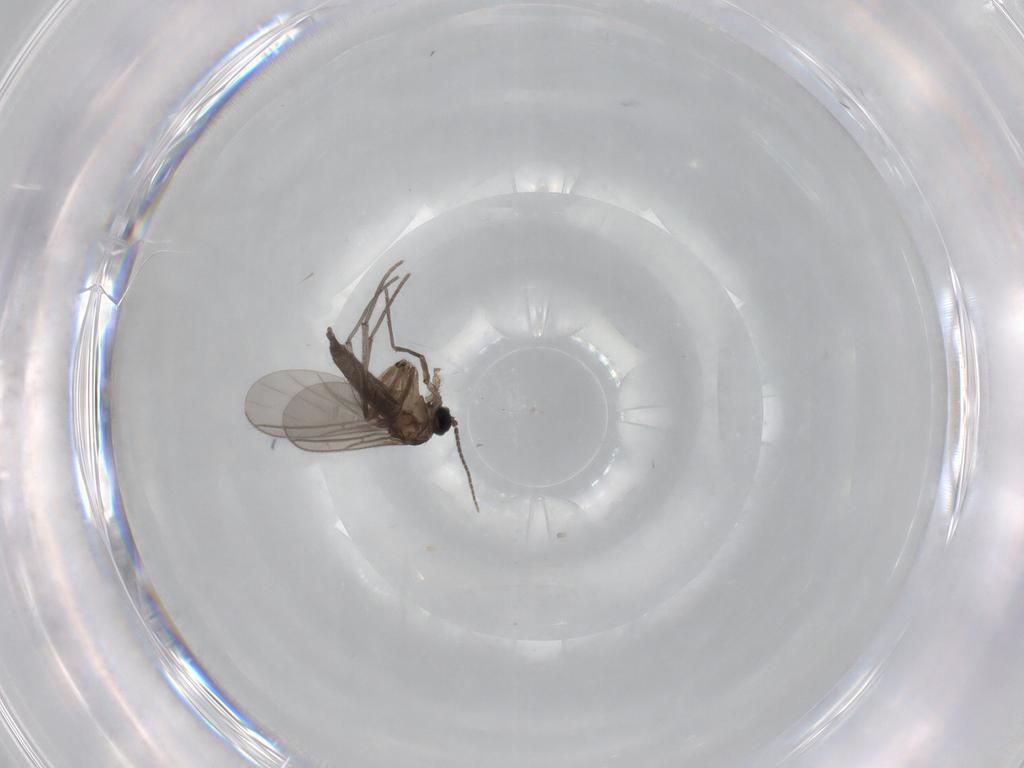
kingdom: Animalia
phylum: Arthropoda
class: Insecta
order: Diptera
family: Sciaridae
